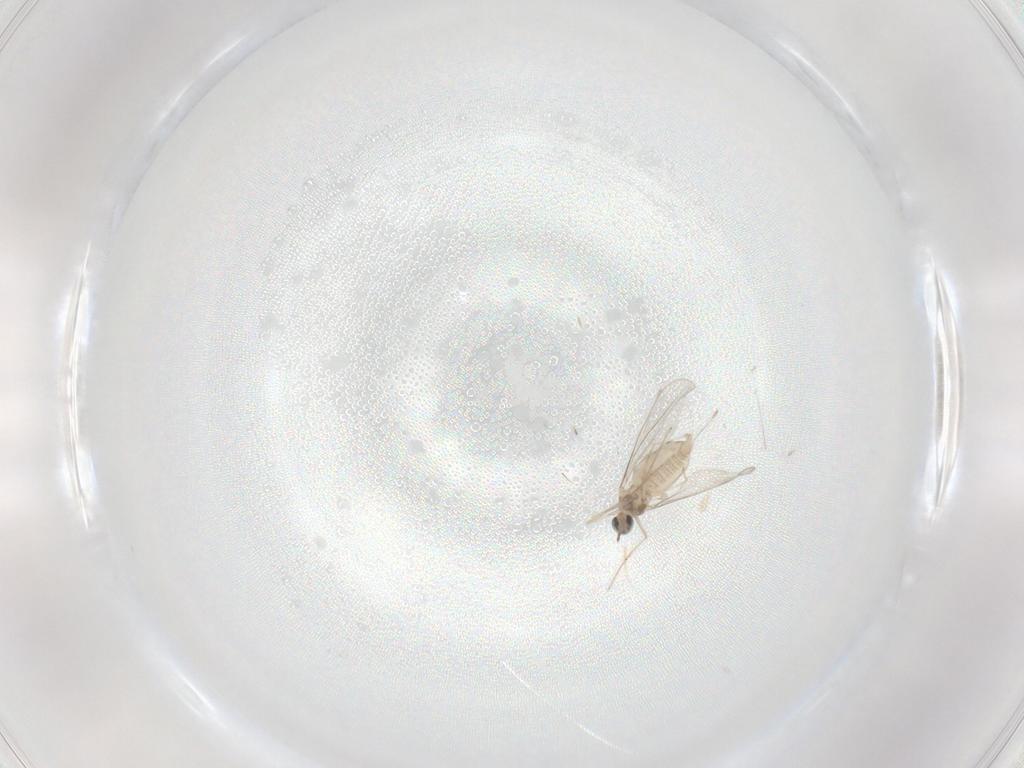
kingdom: Animalia
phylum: Arthropoda
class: Insecta
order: Diptera
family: Cecidomyiidae
